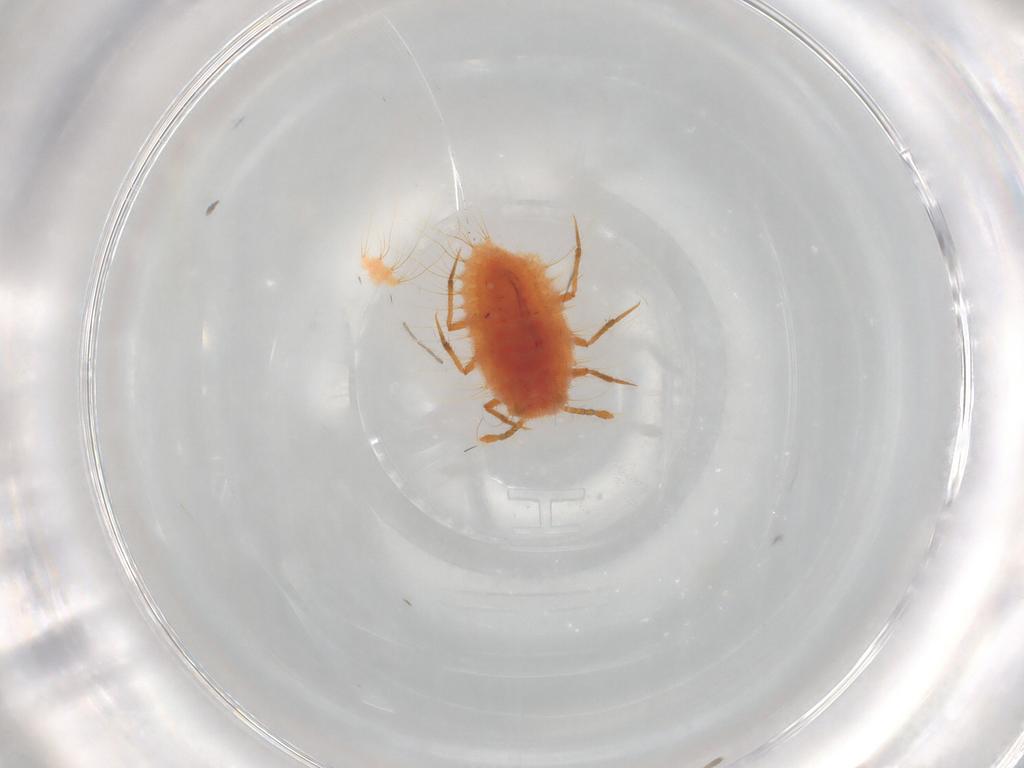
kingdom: Animalia
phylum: Arthropoda
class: Insecta
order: Hemiptera
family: Coccoidea_incertae_sedis
